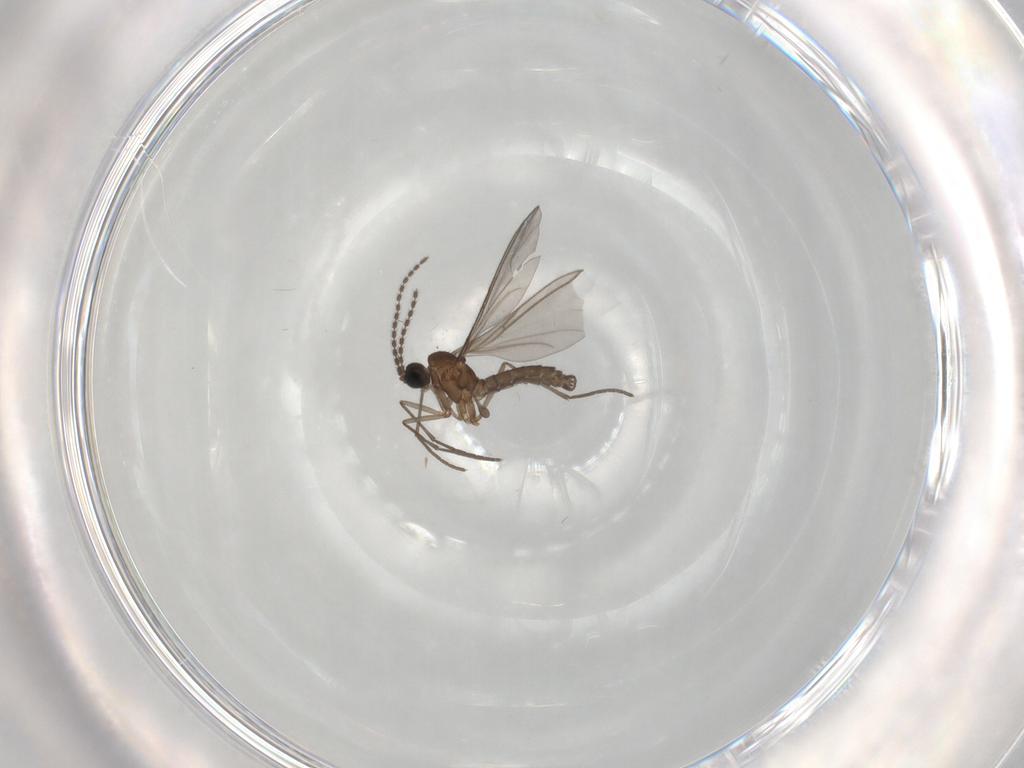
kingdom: Animalia
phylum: Arthropoda
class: Insecta
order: Diptera
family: Sciaridae
